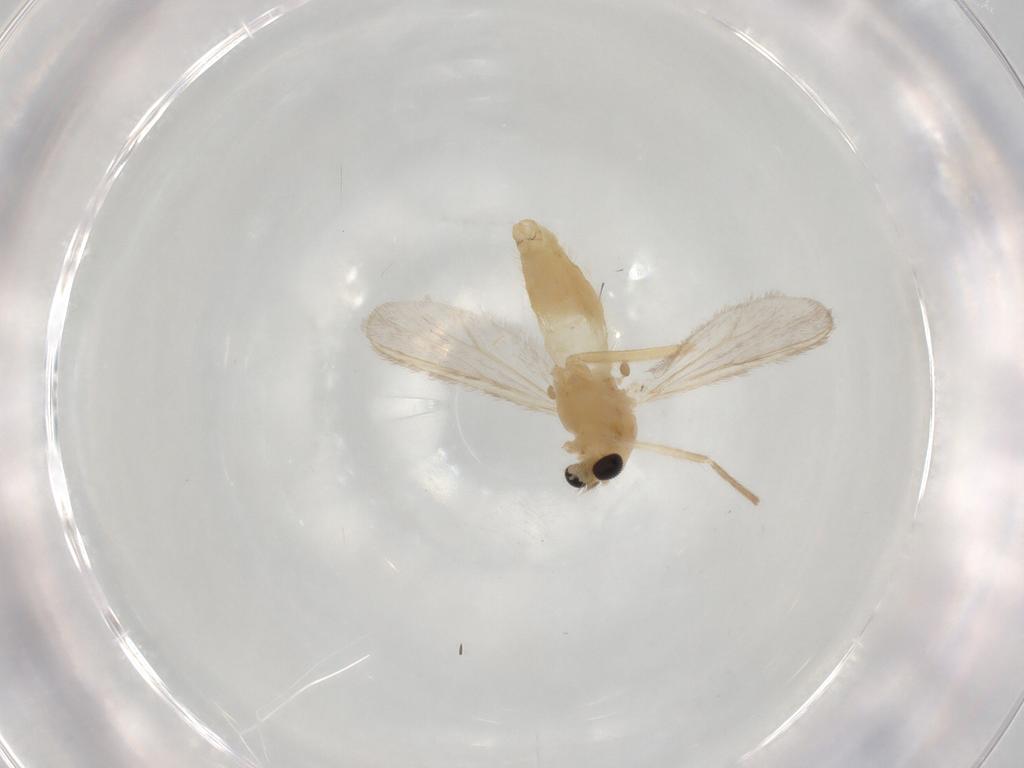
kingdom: Animalia
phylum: Arthropoda
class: Insecta
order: Diptera
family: Chironomidae
